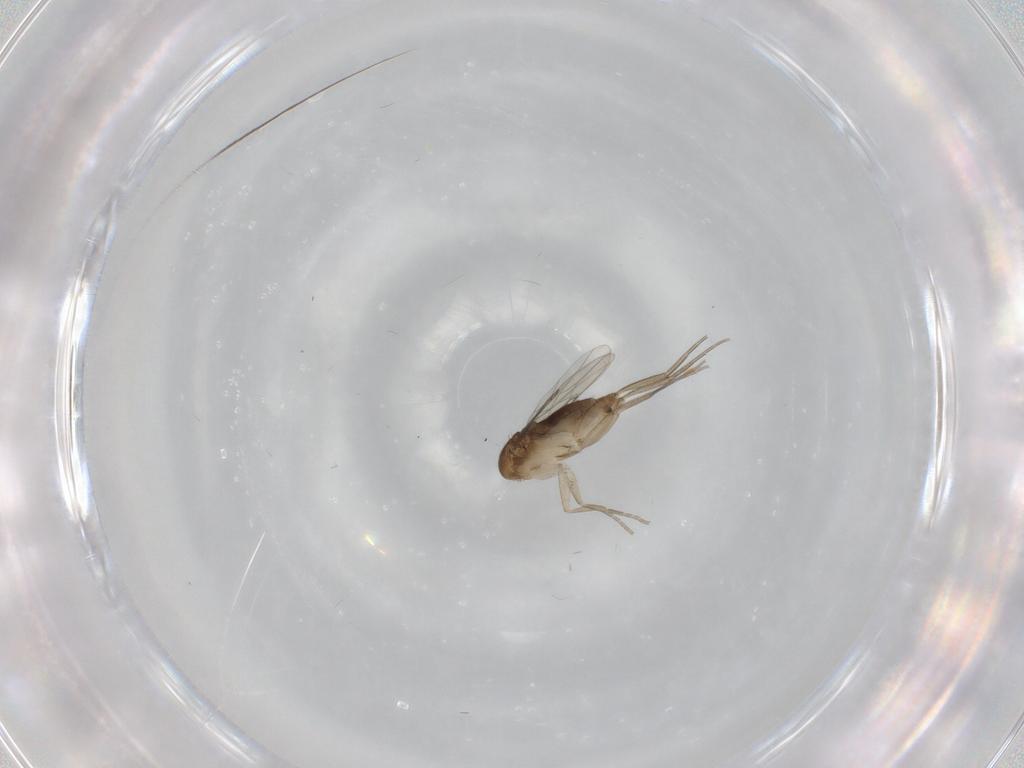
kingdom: Animalia
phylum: Arthropoda
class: Insecta
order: Diptera
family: Phoridae
